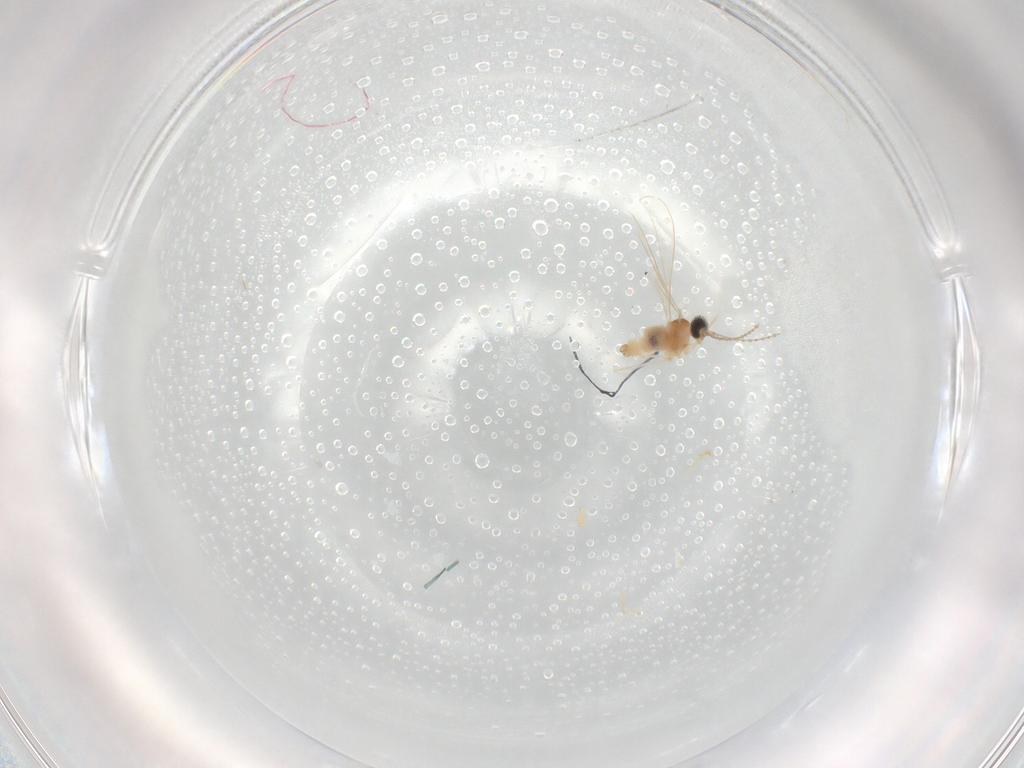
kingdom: Animalia
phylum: Arthropoda
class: Insecta
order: Diptera
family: Cecidomyiidae
